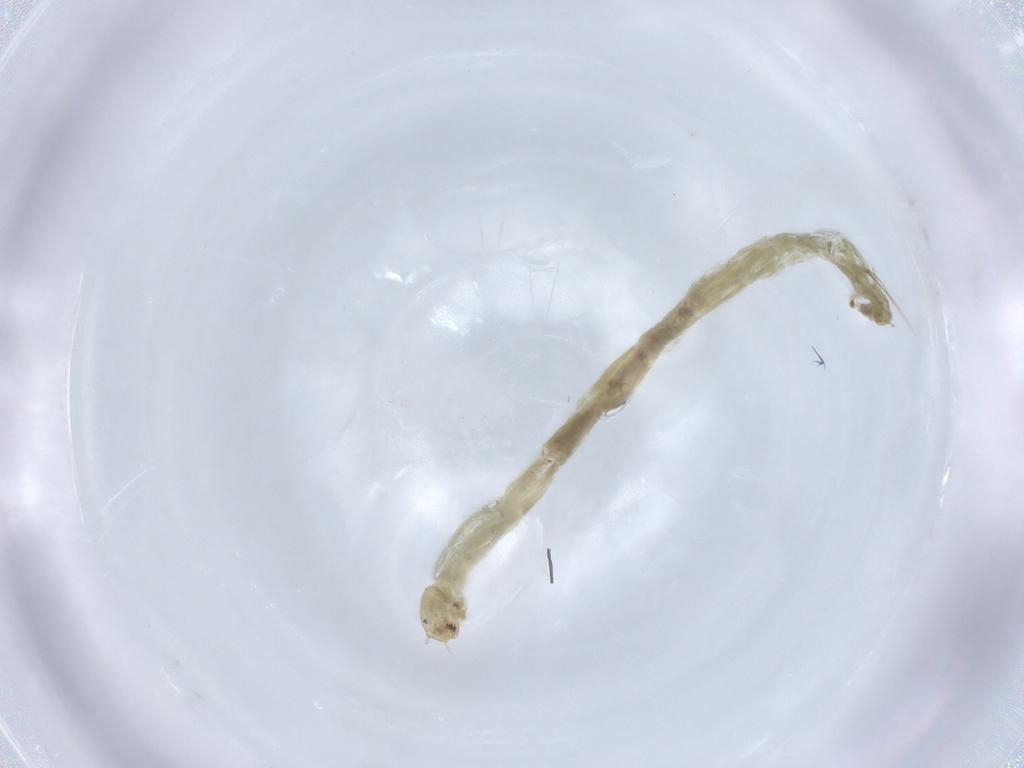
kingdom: Animalia
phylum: Arthropoda
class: Insecta
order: Diptera
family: Chironomidae
